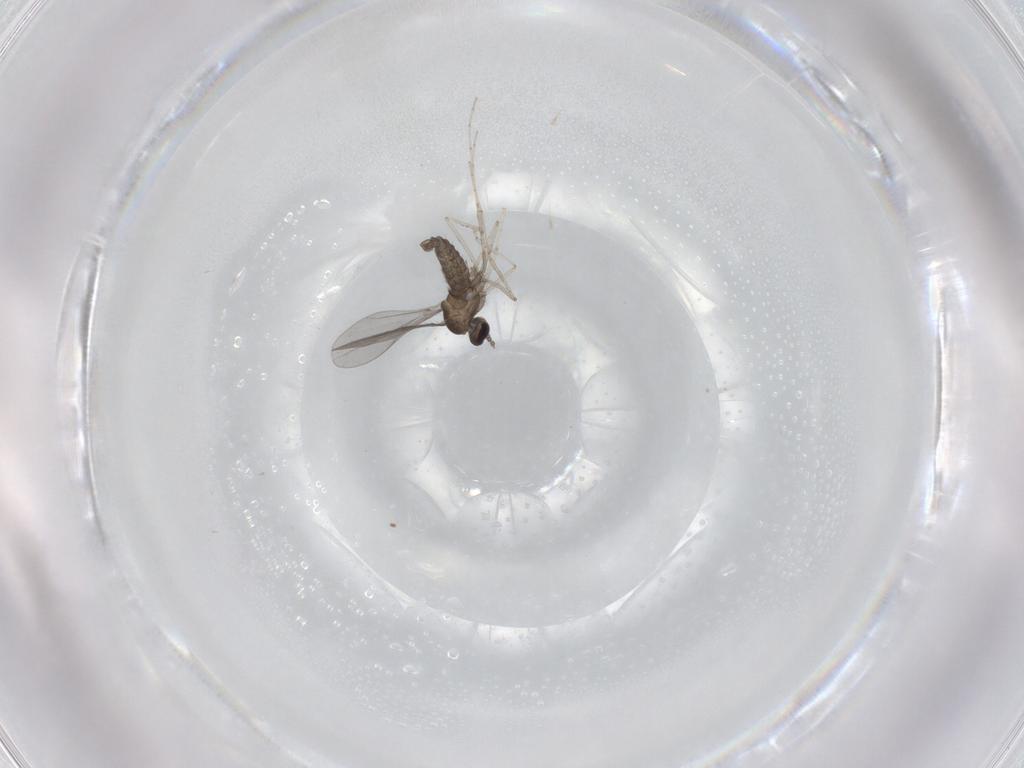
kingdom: Animalia
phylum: Arthropoda
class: Insecta
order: Diptera
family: Cecidomyiidae
